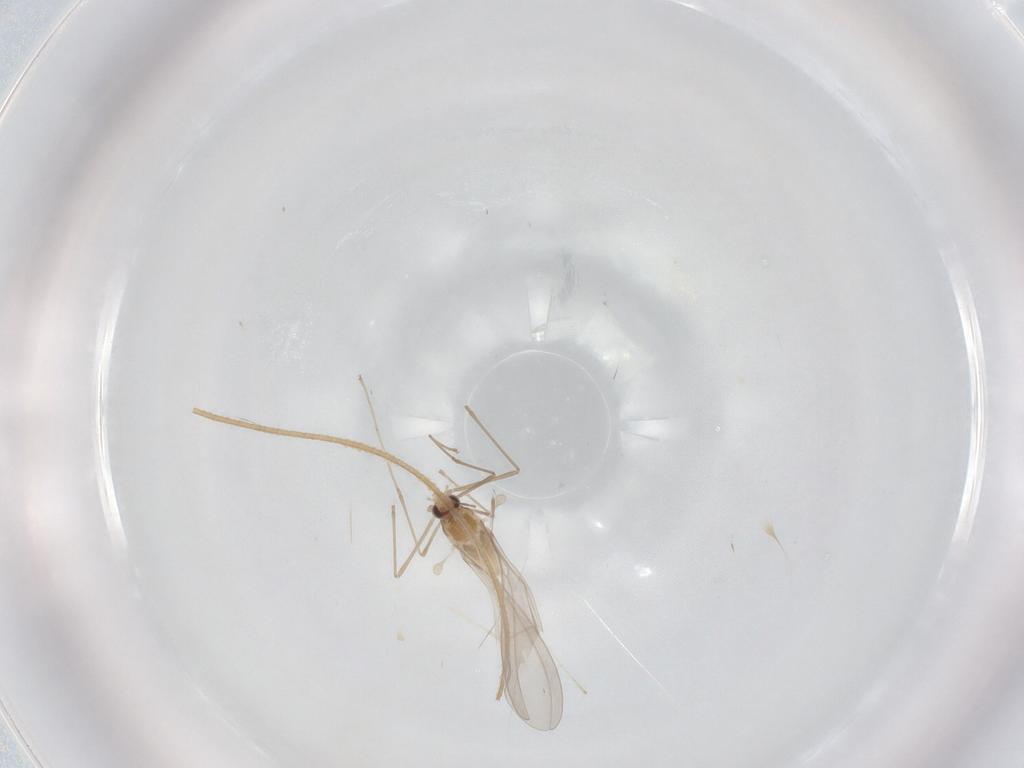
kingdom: Animalia
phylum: Arthropoda
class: Insecta
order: Diptera
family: Cecidomyiidae
